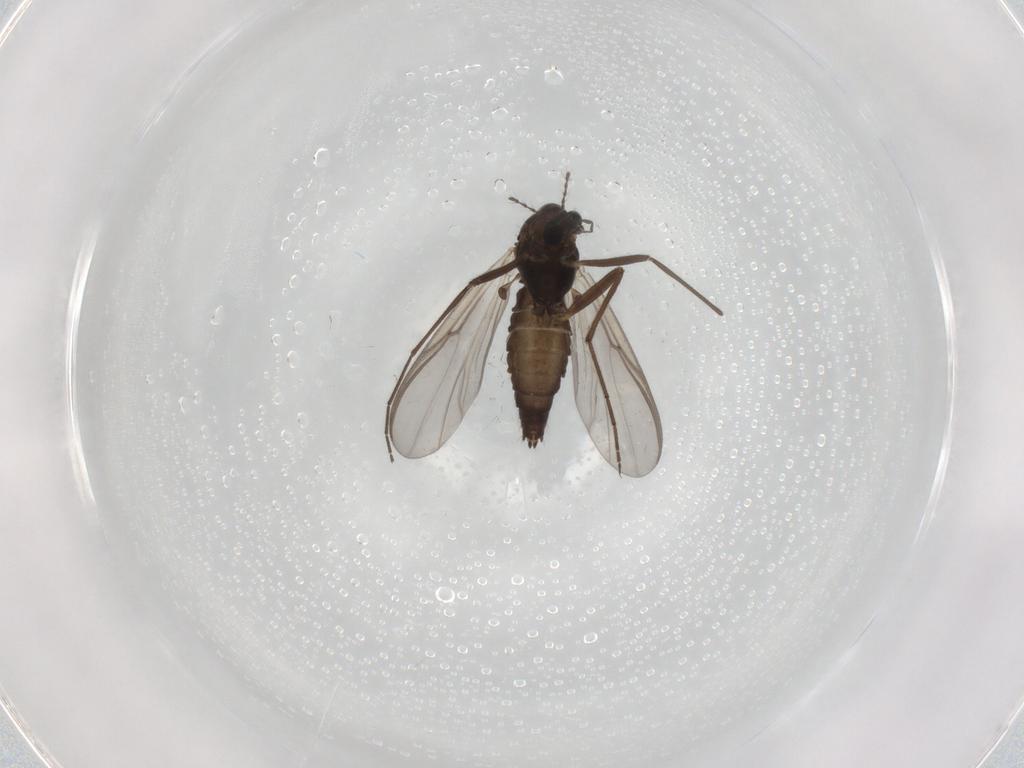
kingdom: Animalia
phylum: Arthropoda
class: Insecta
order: Diptera
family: Chironomidae
